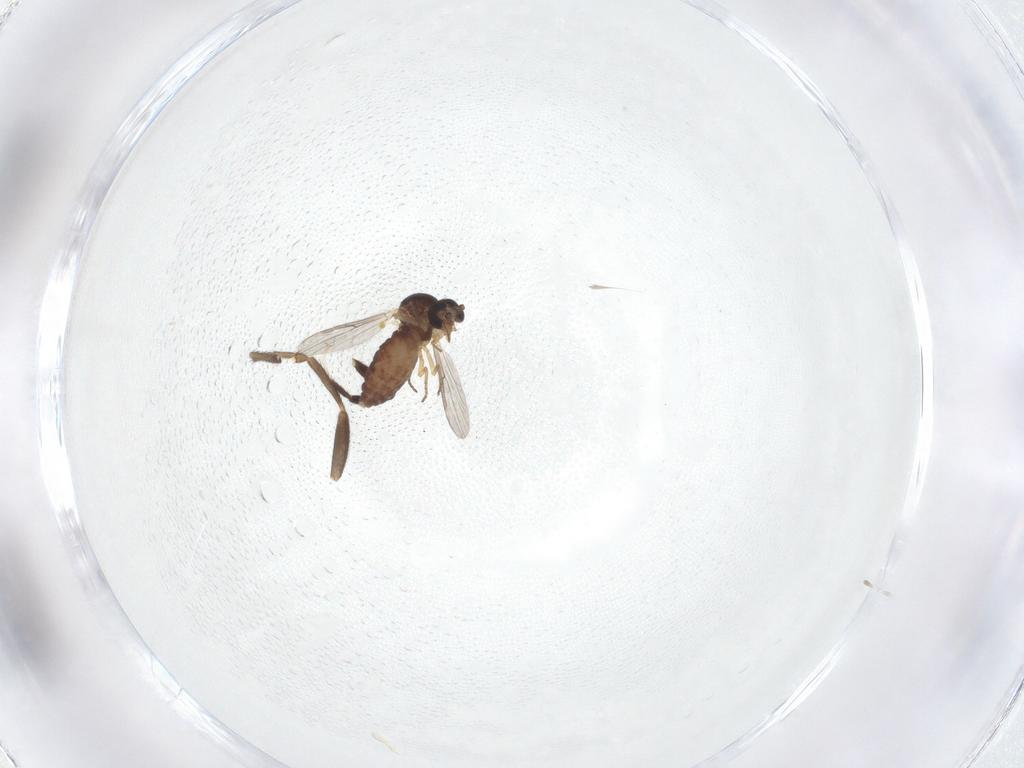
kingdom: Animalia
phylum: Arthropoda
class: Insecta
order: Diptera
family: Ceratopogonidae
